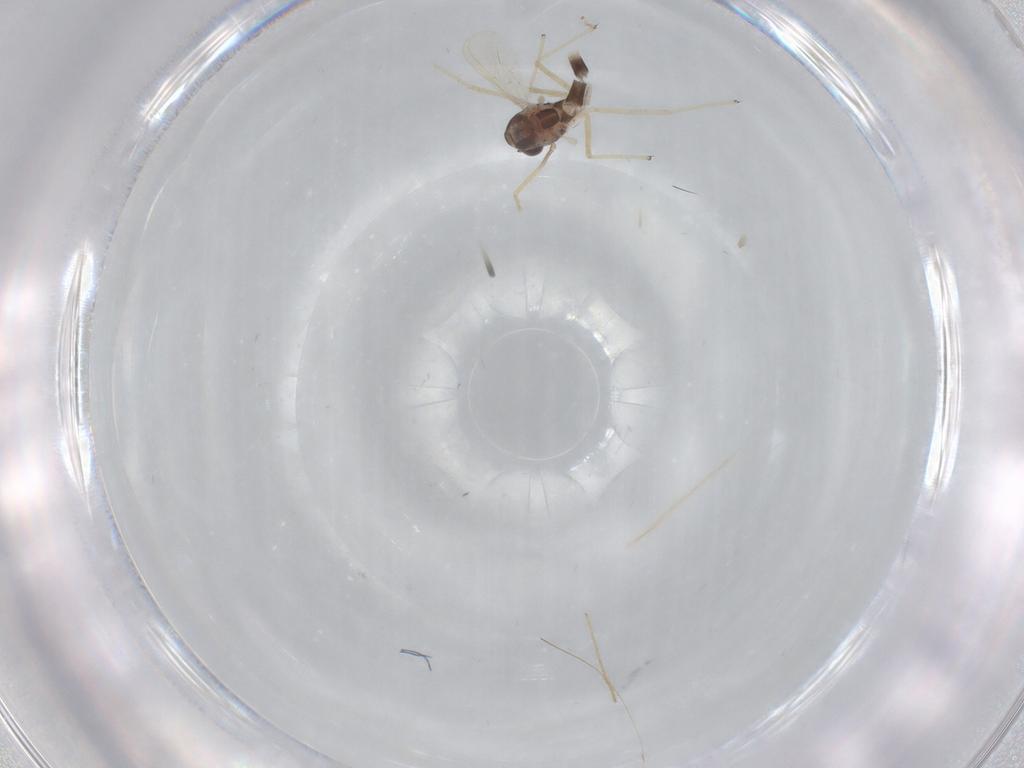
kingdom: Animalia
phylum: Arthropoda
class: Insecta
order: Diptera
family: Chironomidae
